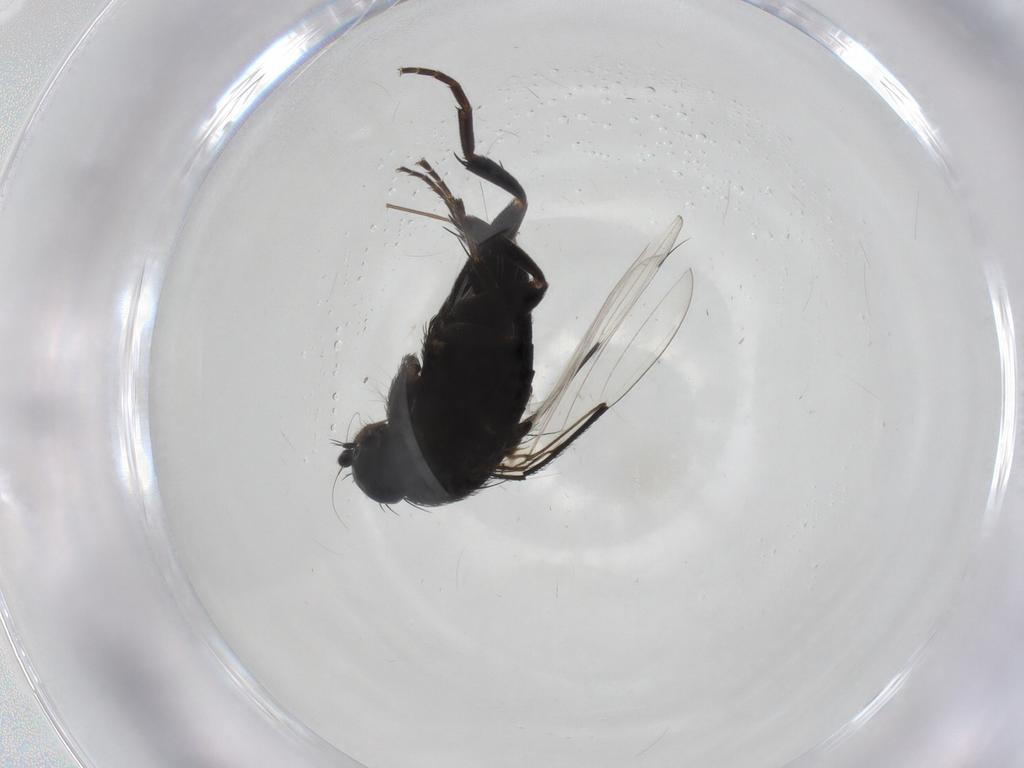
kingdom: Animalia
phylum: Arthropoda
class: Insecta
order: Diptera
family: Phoridae
